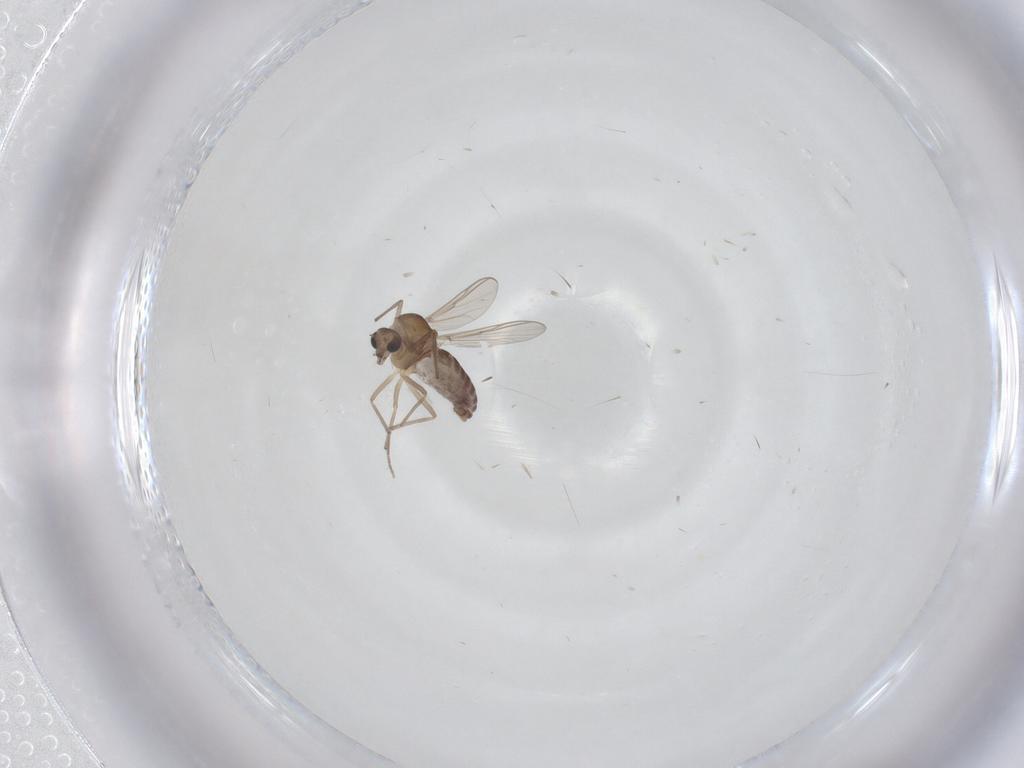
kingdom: Animalia
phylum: Arthropoda
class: Insecta
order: Diptera
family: Chironomidae
